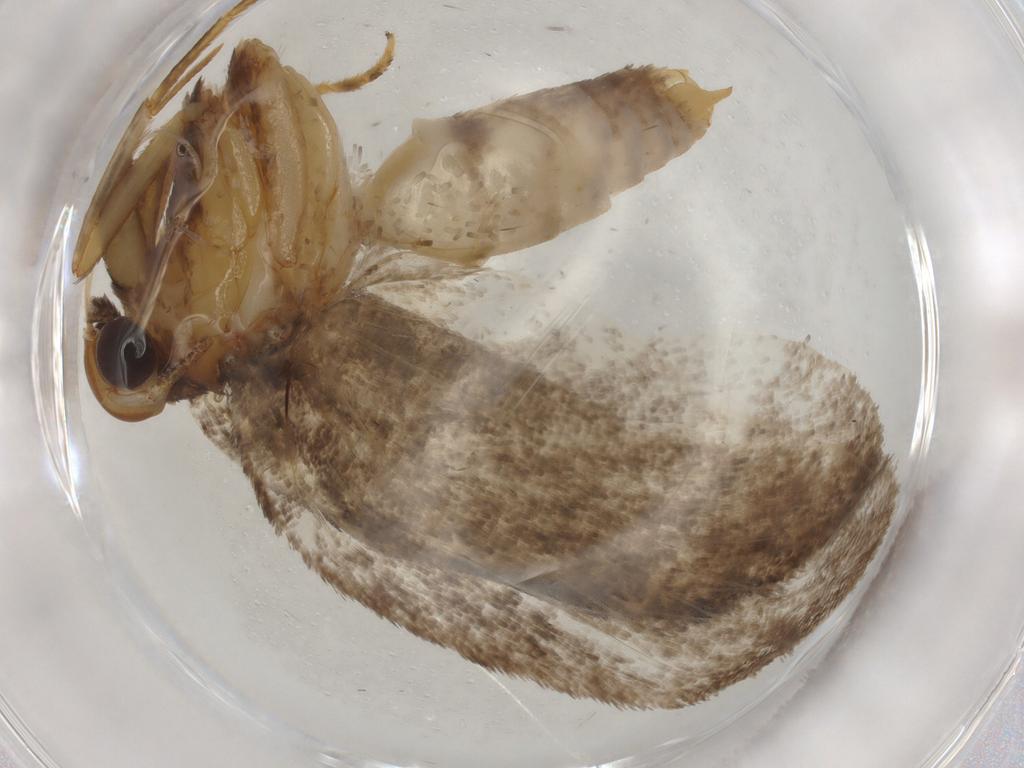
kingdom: Animalia
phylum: Arthropoda
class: Insecta
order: Lepidoptera
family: Oecophoridae
